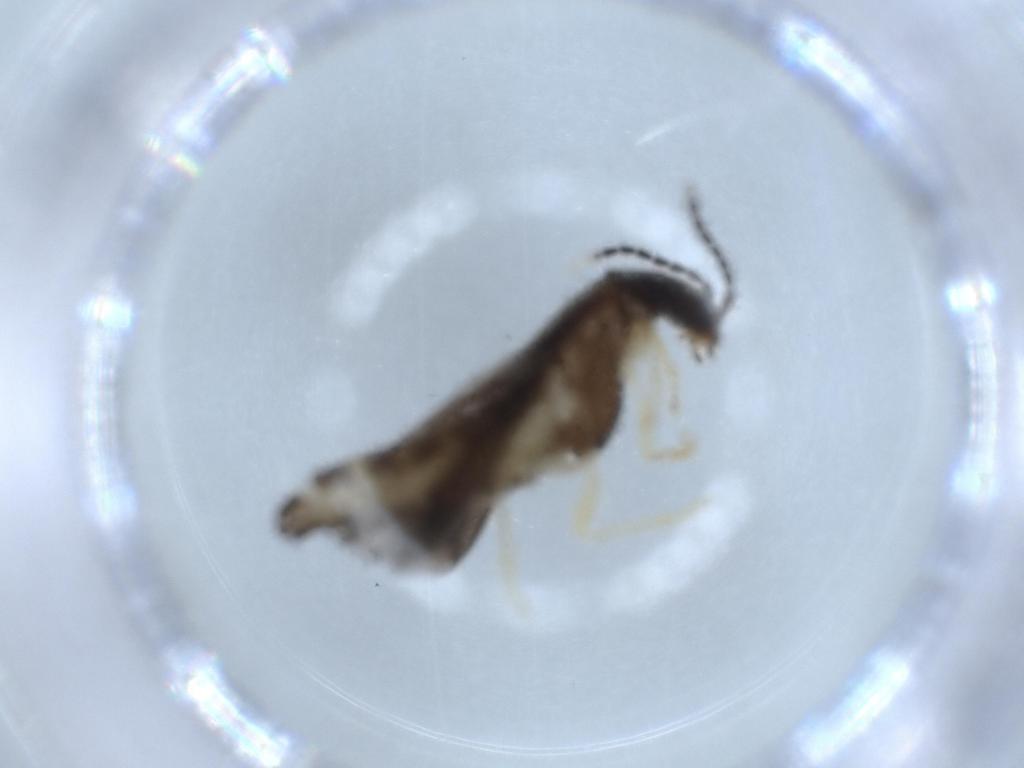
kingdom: Animalia
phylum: Arthropoda
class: Insecta
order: Coleoptera
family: Cantharidae
